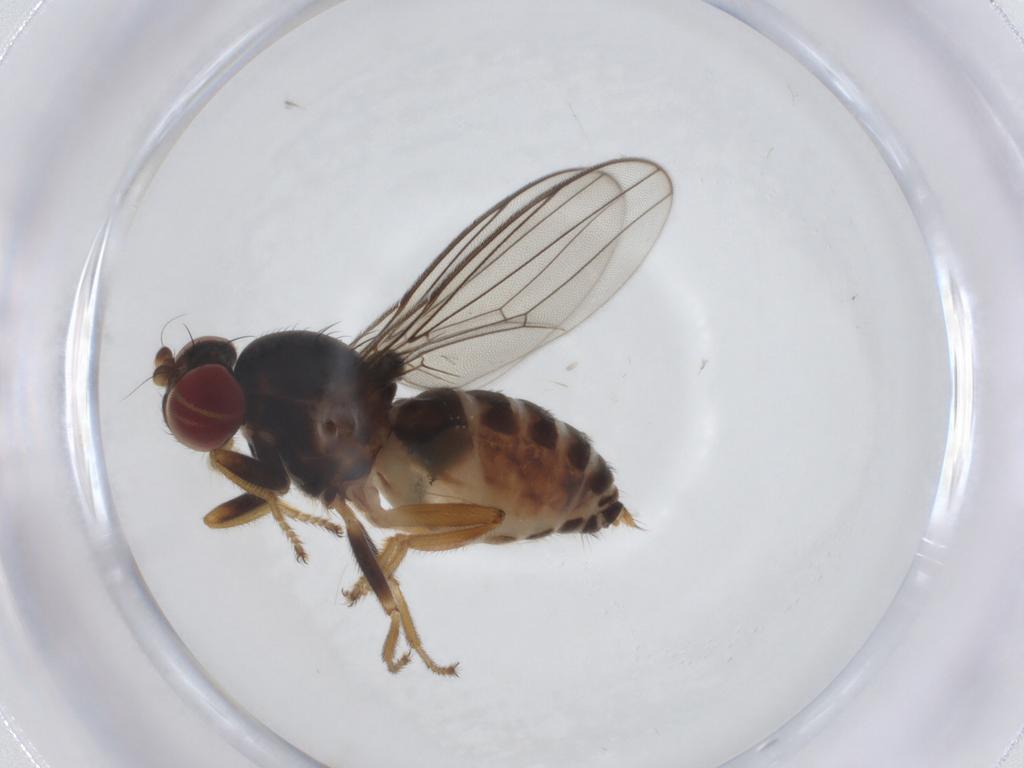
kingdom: Animalia
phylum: Arthropoda
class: Insecta
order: Diptera
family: Aulacigastridae
